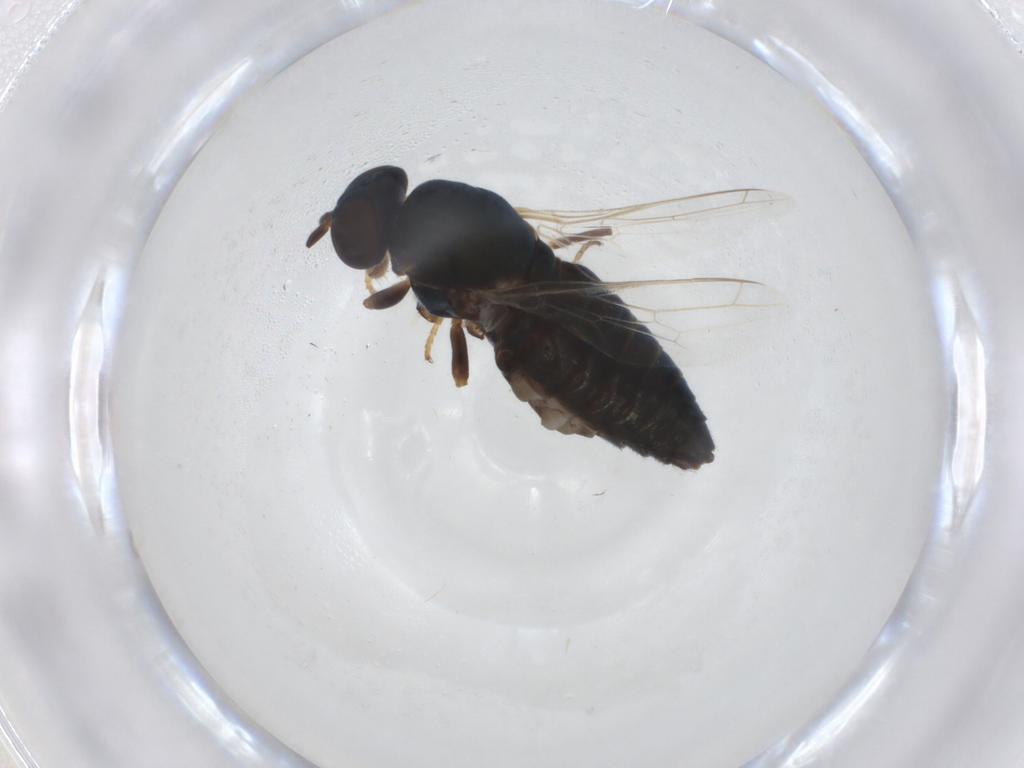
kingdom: Animalia
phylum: Arthropoda
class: Insecta
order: Diptera
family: Scenopinidae
